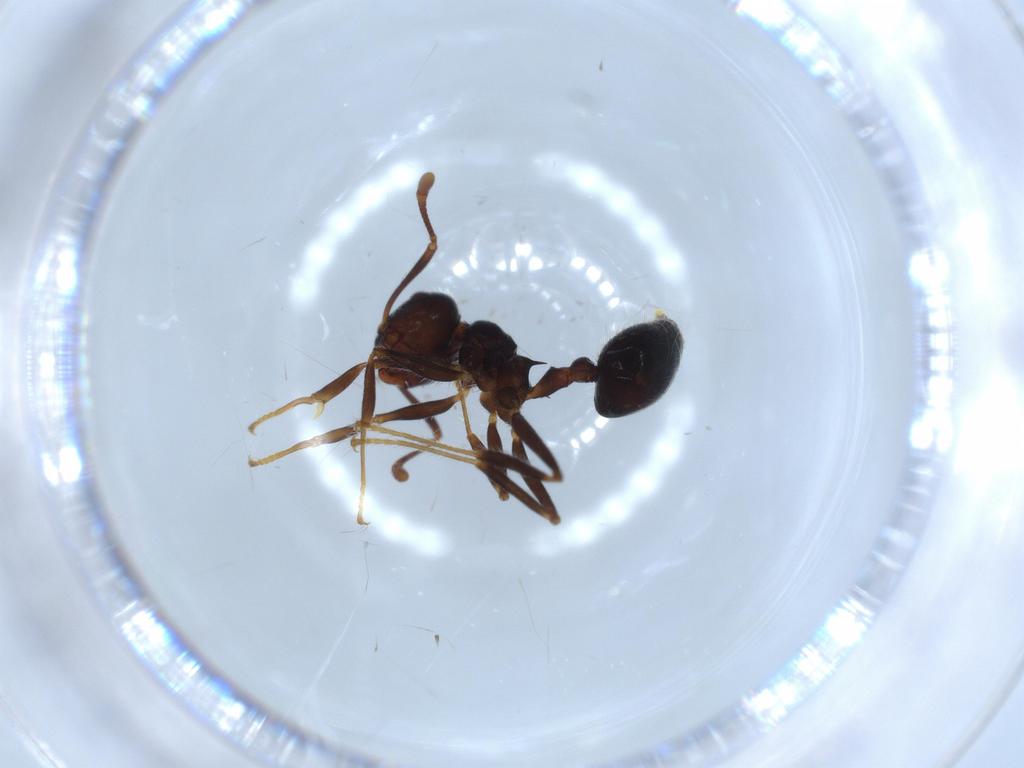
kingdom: Animalia
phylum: Arthropoda
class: Insecta
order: Hymenoptera
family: Formicidae
